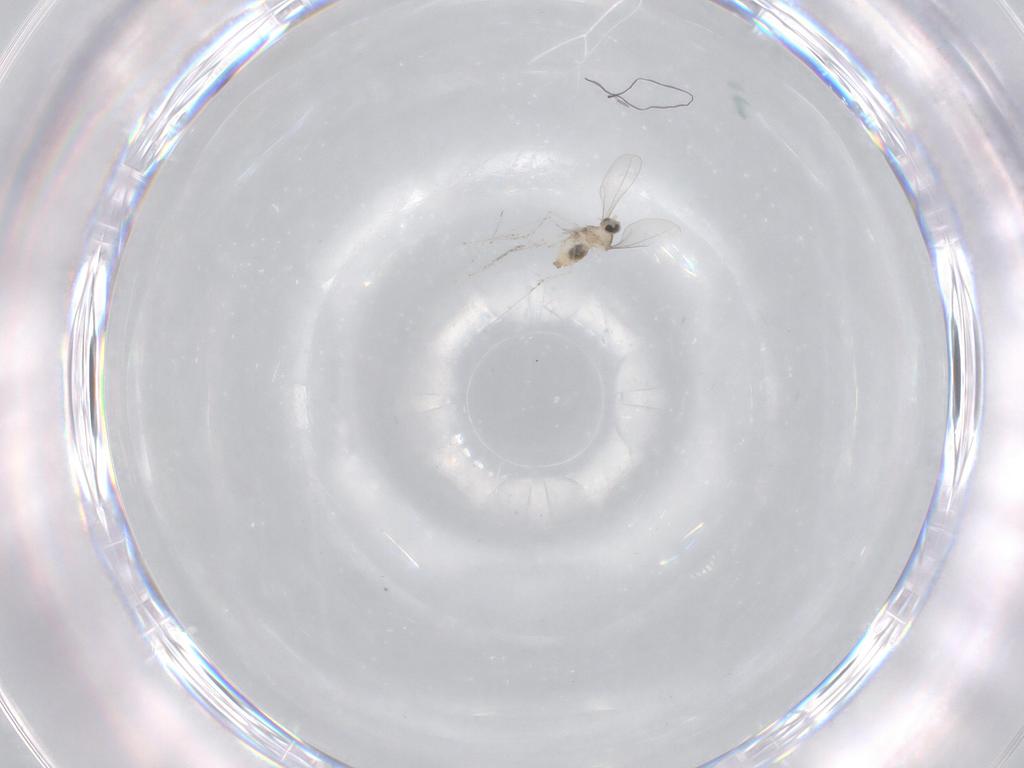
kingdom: Animalia
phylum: Arthropoda
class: Insecta
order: Diptera
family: Cecidomyiidae
